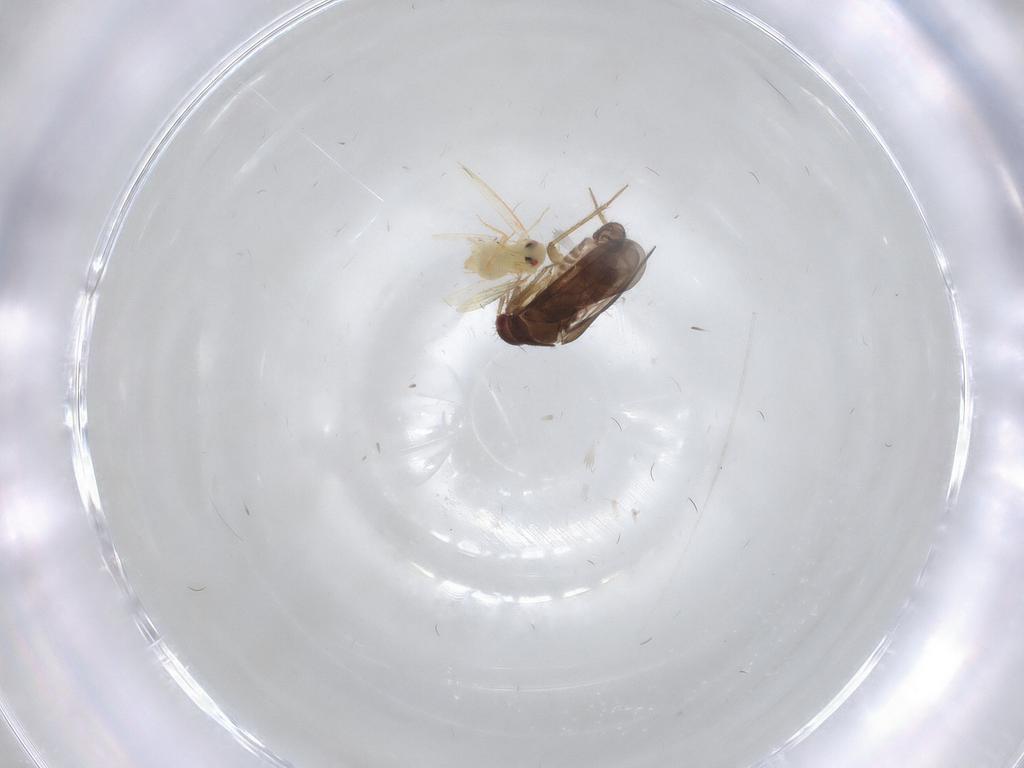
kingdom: Animalia
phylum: Arthropoda
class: Insecta
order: Hemiptera
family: Ceratocombidae
